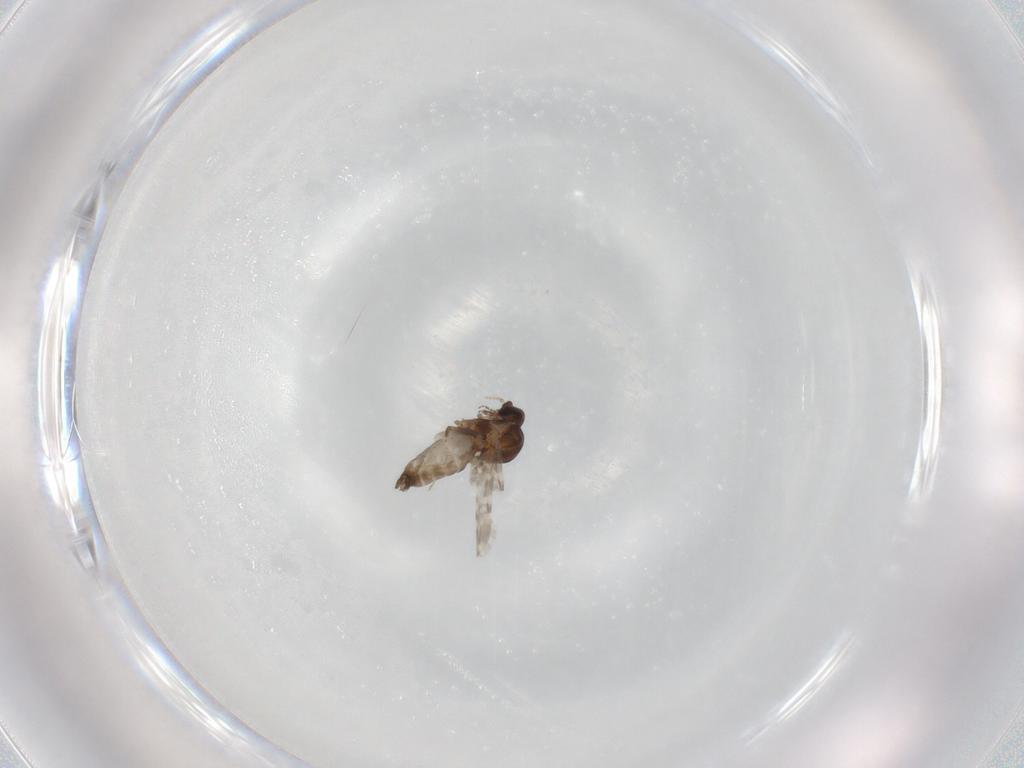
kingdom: Animalia
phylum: Arthropoda
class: Insecta
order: Diptera
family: Ceratopogonidae
